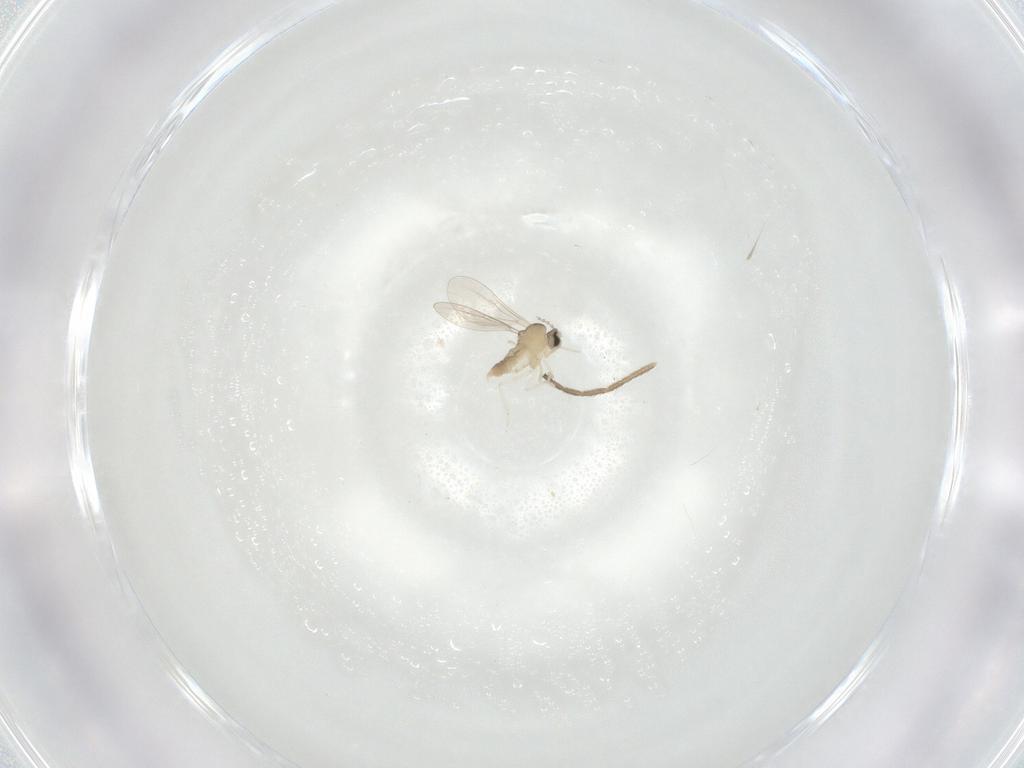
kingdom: Animalia
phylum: Arthropoda
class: Insecta
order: Diptera
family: Cecidomyiidae
